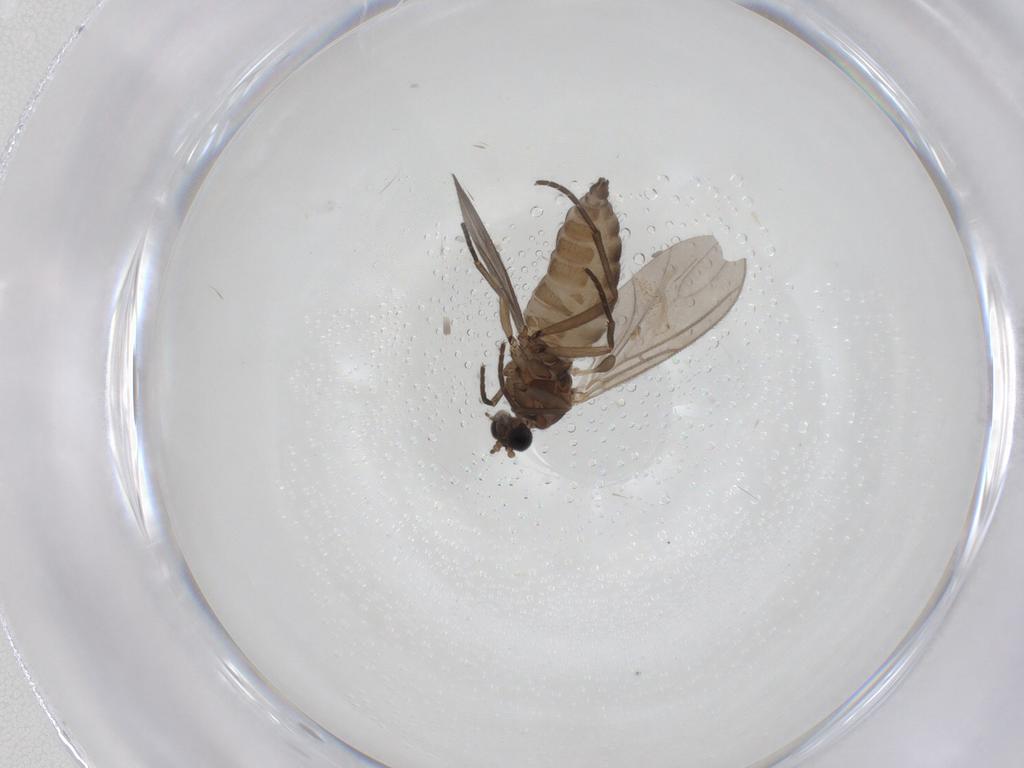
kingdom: Animalia
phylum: Arthropoda
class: Insecta
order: Diptera
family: Sciaridae
